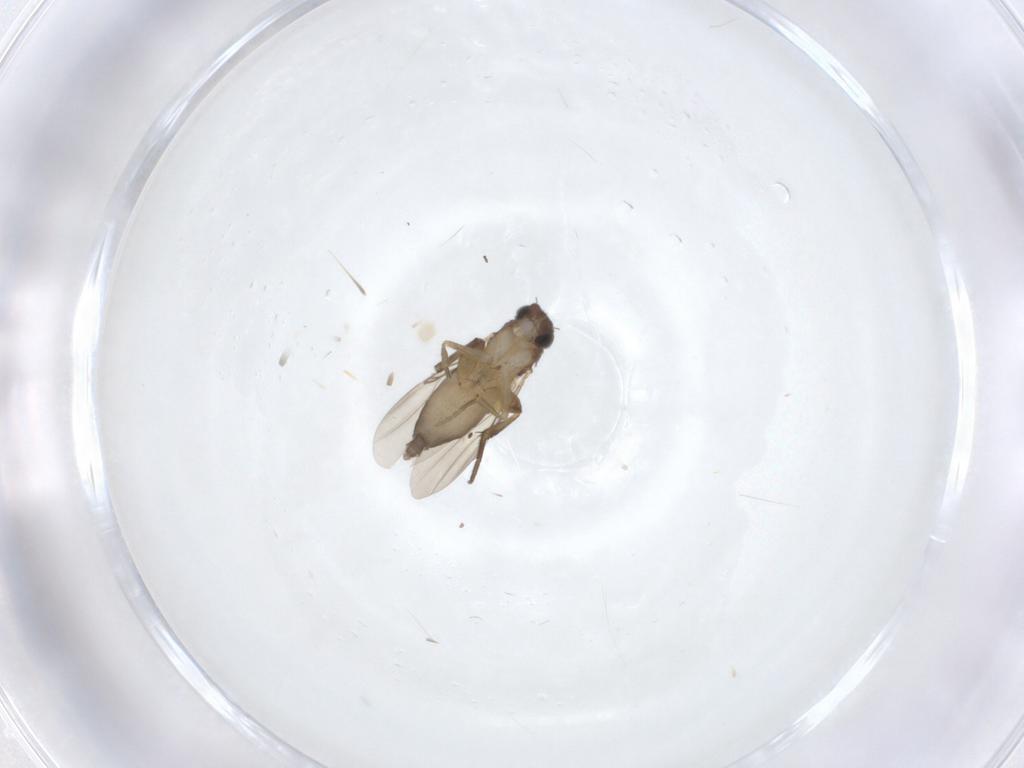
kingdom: Animalia
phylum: Arthropoda
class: Insecta
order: Diptera
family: Phoridae
